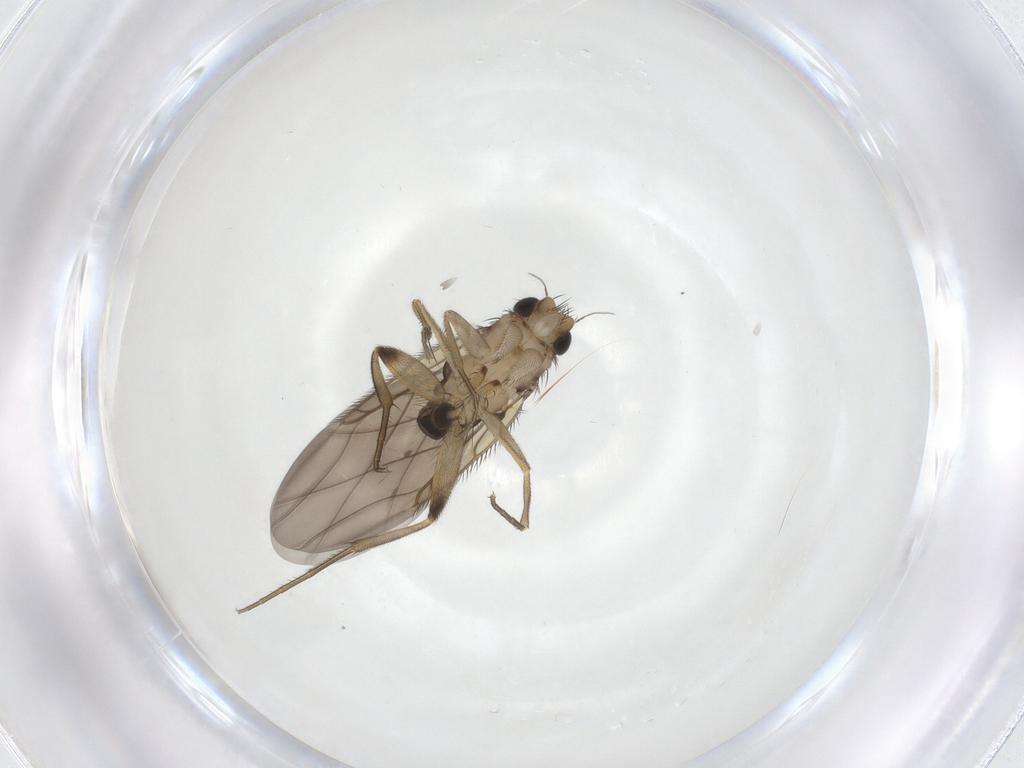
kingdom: Animalia
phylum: Arthropoda
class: Insecta
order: Diptera
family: Phoridae
